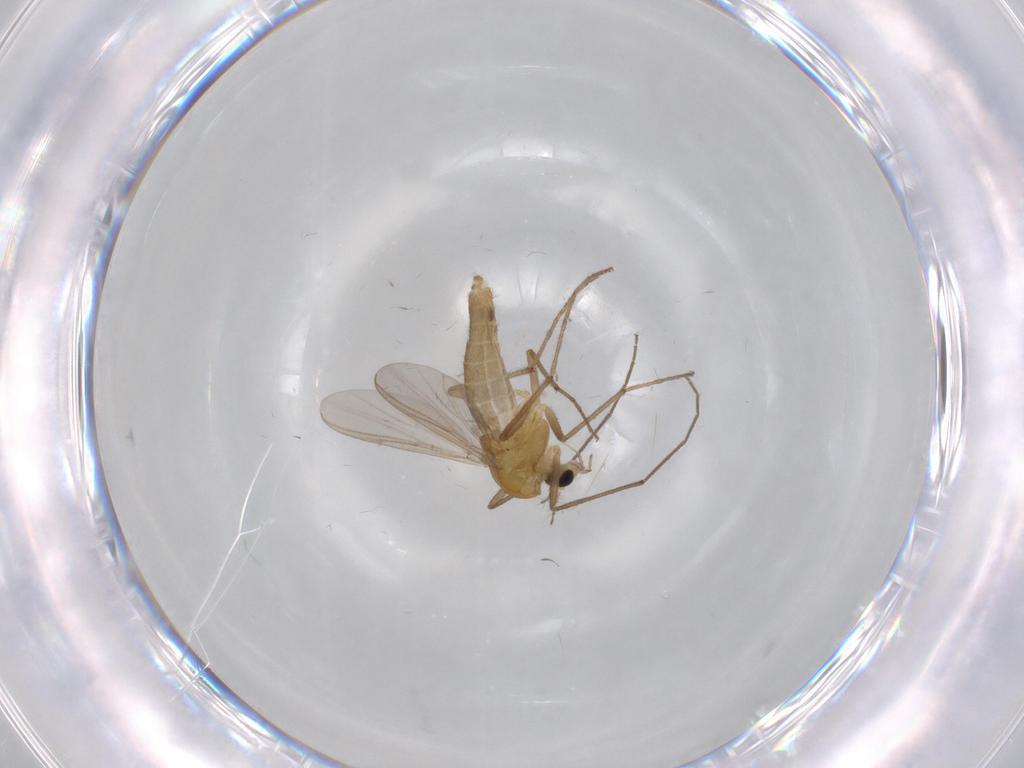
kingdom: Animalia
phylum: Arthropoda
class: Insecta
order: Diptera
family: Chironomidae
